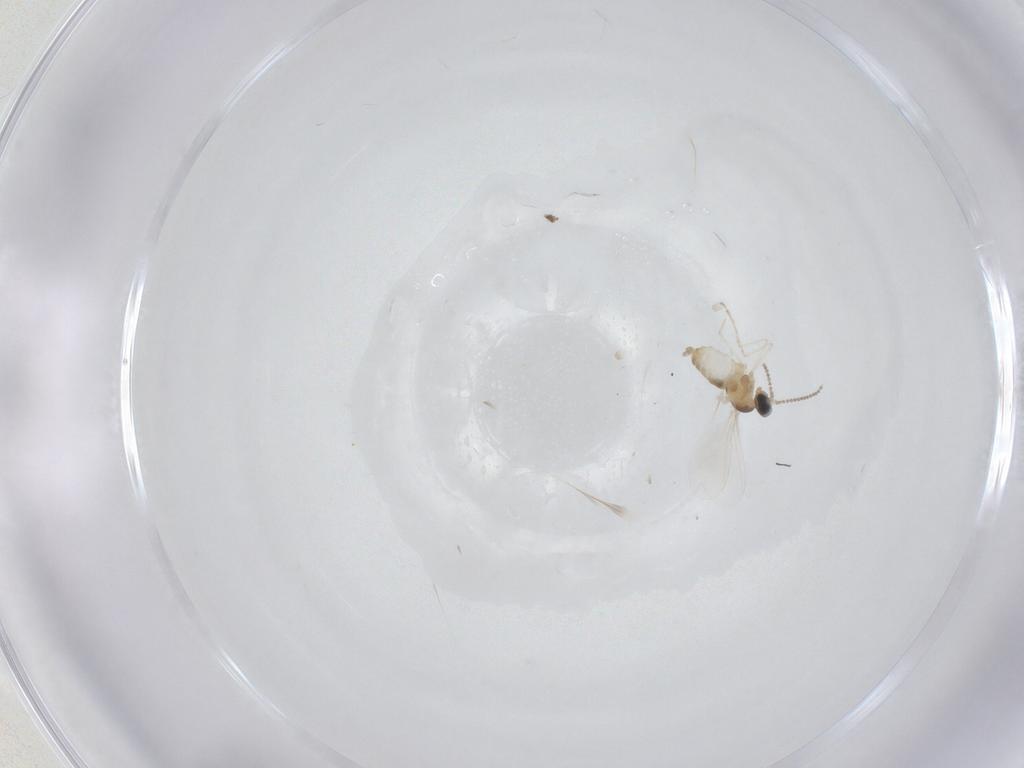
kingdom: Animalia
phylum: Arthropoda
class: Insecta
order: Diptera
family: Cecidomyiidae
